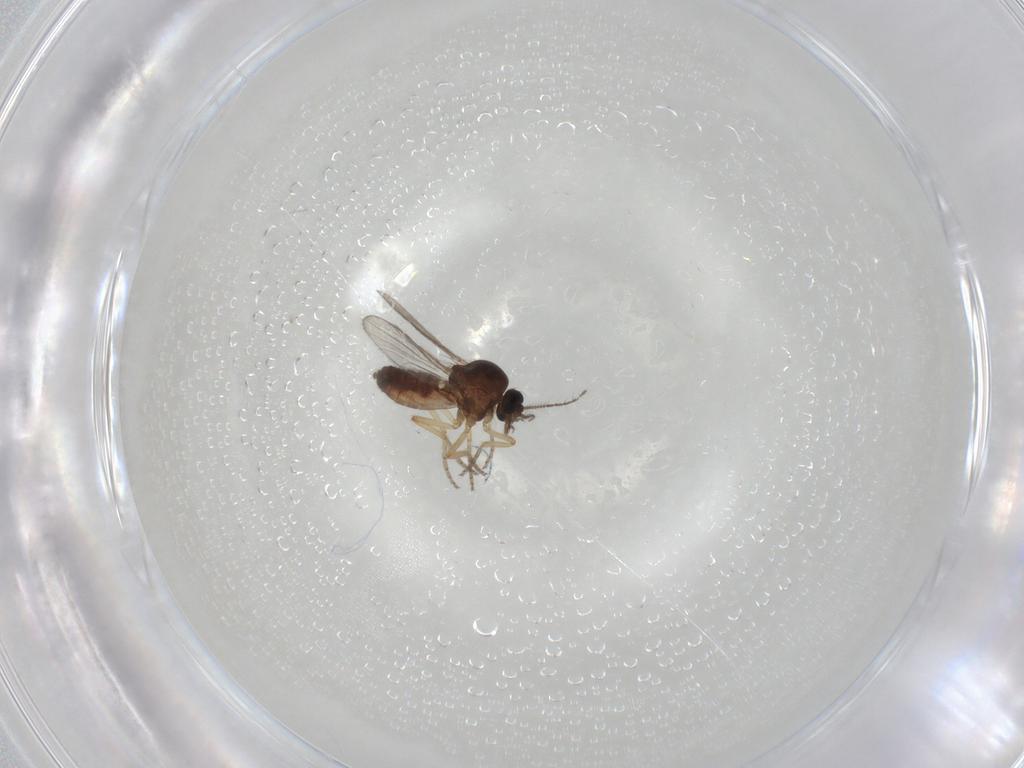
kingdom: Animalia
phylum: Arthropoda
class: Insecta
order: Diptera
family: Ceratopogonidae
